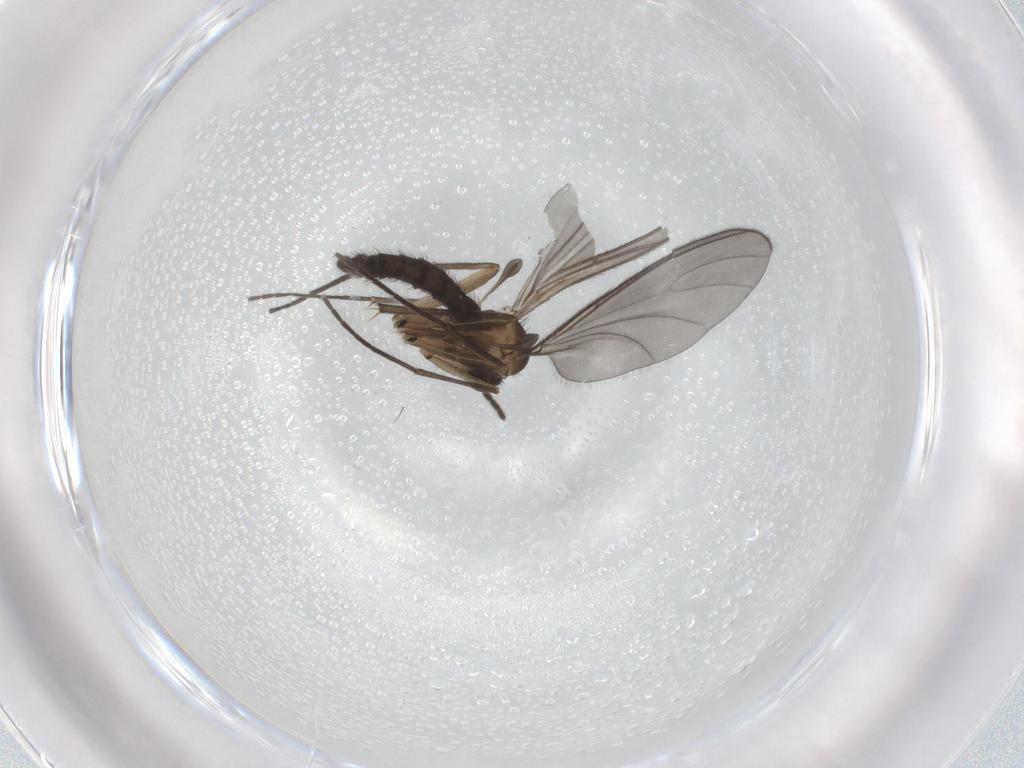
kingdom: Animalia
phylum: Arthropoda
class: Insecta
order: Diptera
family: Sciaridae
